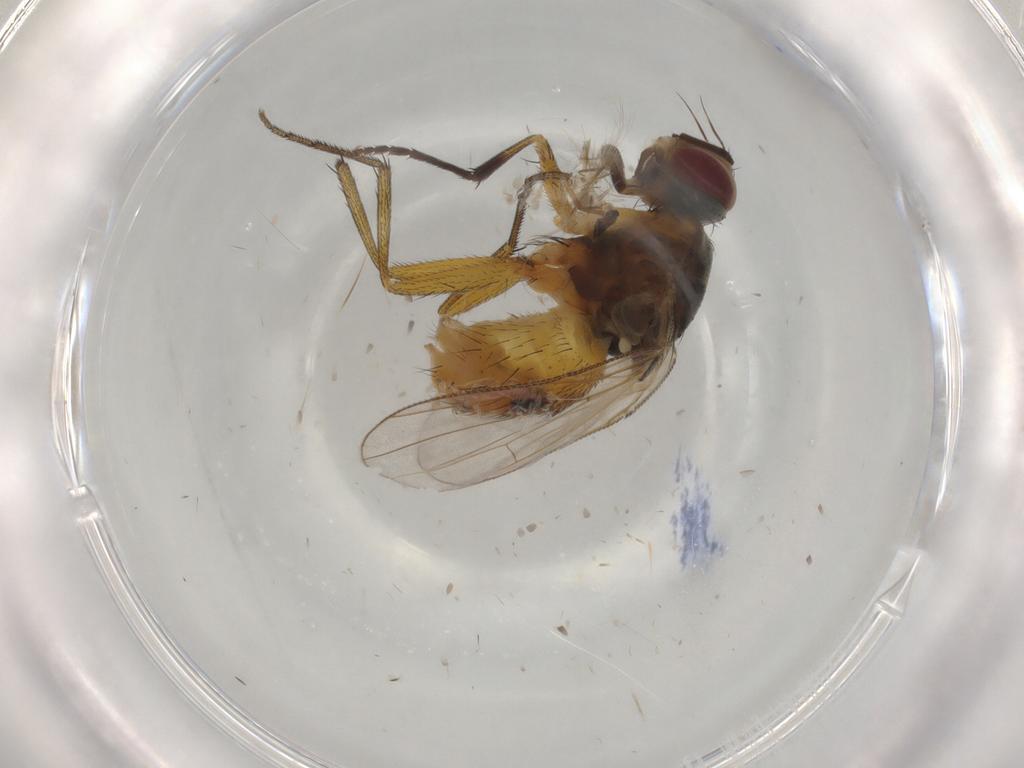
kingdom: Animalia
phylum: Arthropoda
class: Insecta
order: Diptera
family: Muscidae
